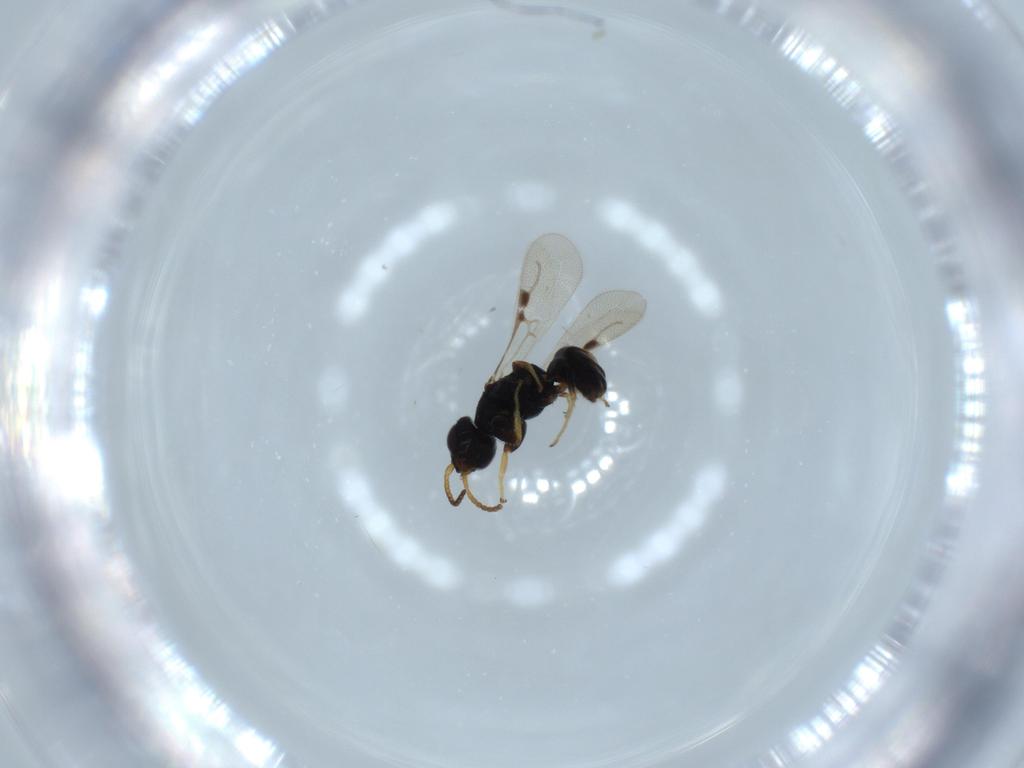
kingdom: Animalia
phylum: Arthropoda
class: Insecta
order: Hymenoptera
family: Bethylidae
